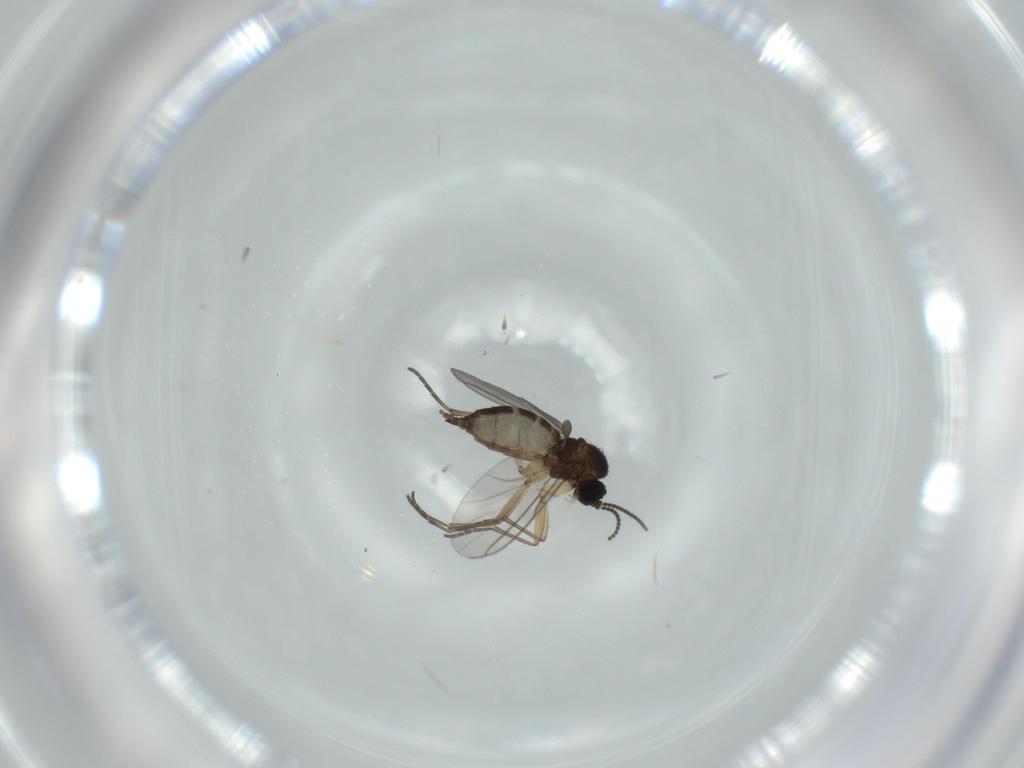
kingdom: Animalia
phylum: Arthropoda
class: Insecta
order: Diptera
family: Sciaridae
